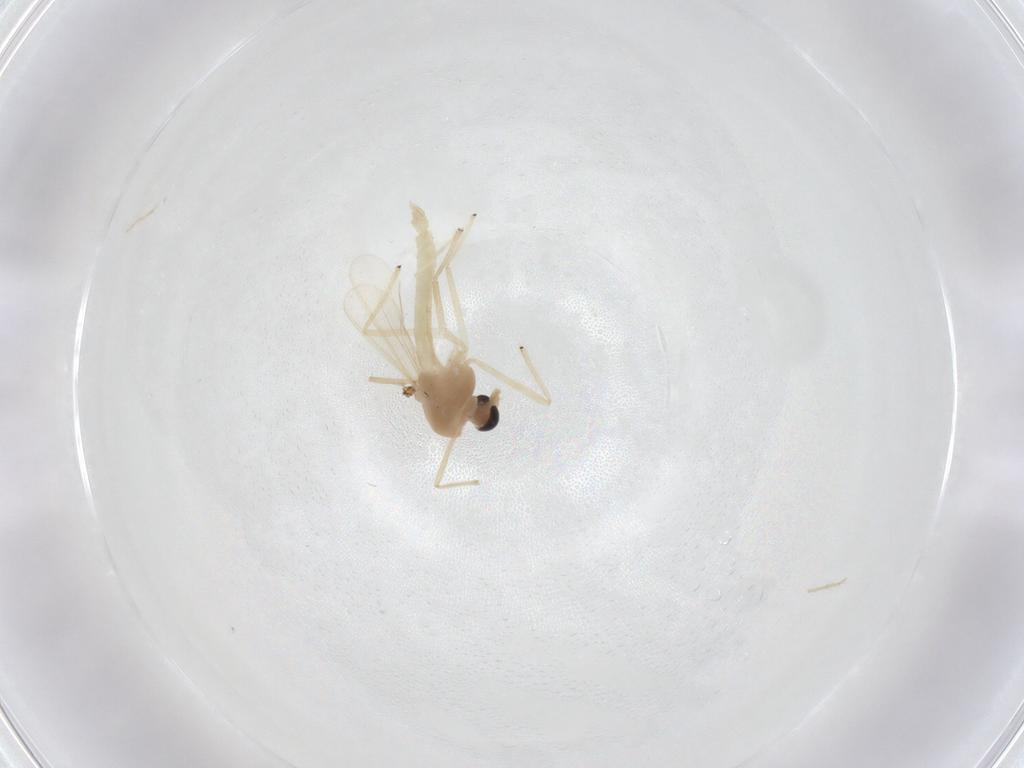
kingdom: Animalia
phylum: Arthropoda
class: Insecta
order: Diptera
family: Chironomidae
